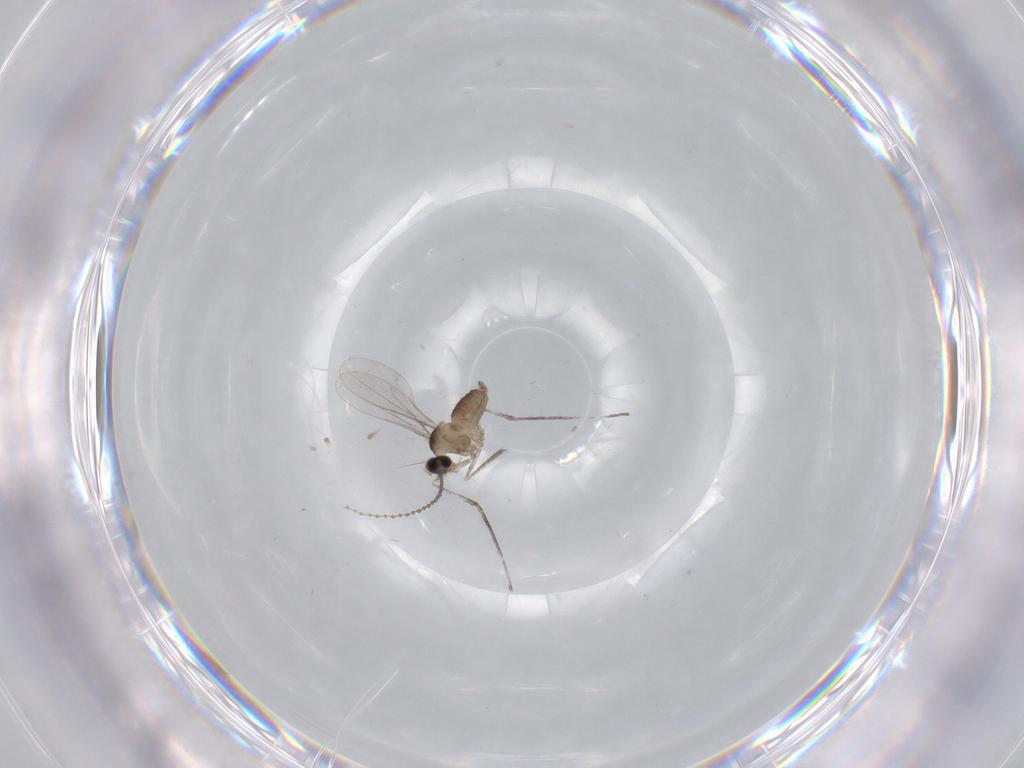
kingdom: Animalia
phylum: Arthropoda
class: Insecta
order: Diptera
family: Cecidomyiidae
